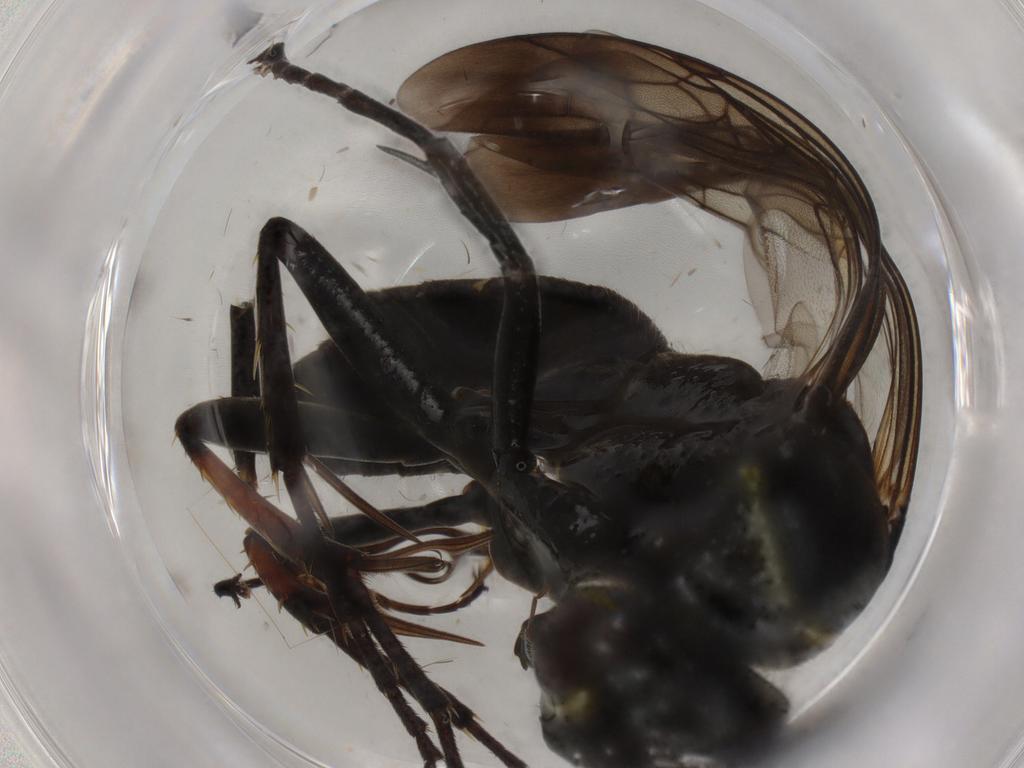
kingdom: Animalia
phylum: Arthropoda
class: Insecta
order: Hymenoptera
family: Pompilidae
